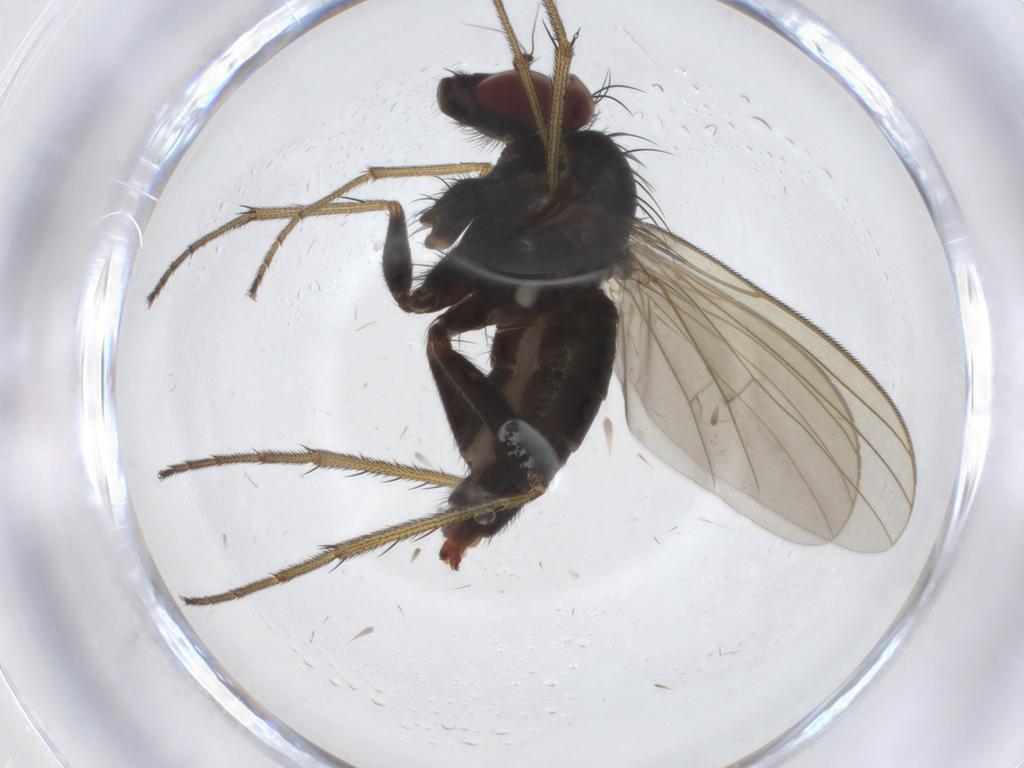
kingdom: Animalia
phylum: Arthropoda
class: Insecta
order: Diptera
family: Dolichopodidae
